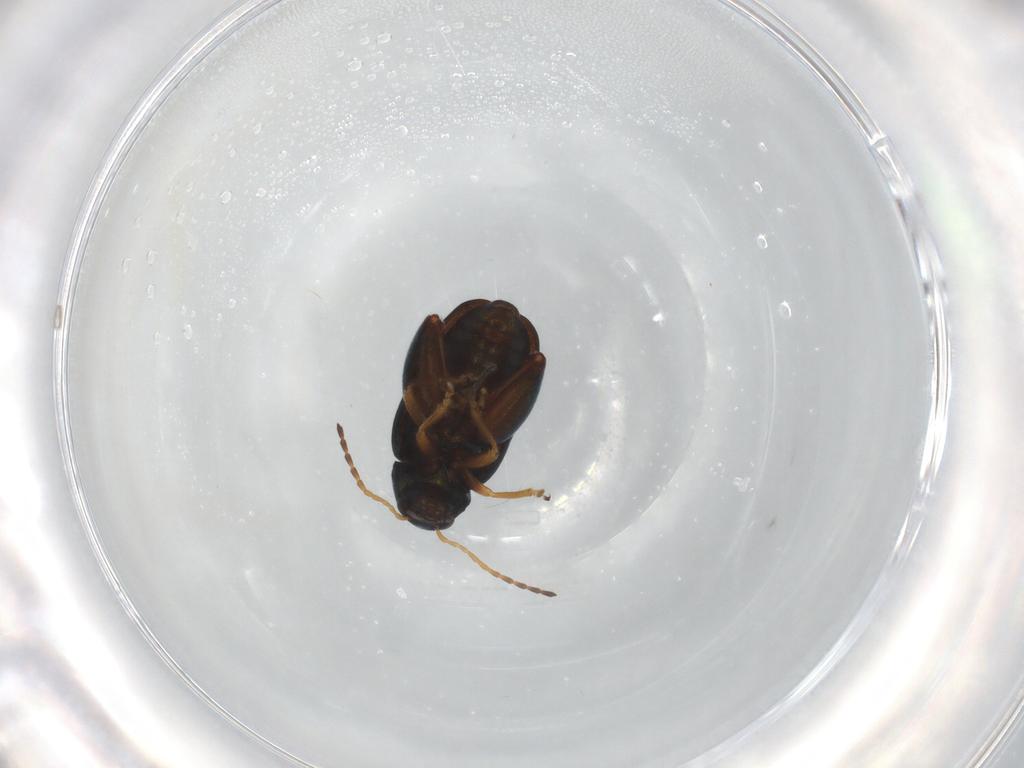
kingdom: Animalia
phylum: Arthropoda
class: Insecta
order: Coleoptera
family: Chrysomelidae
